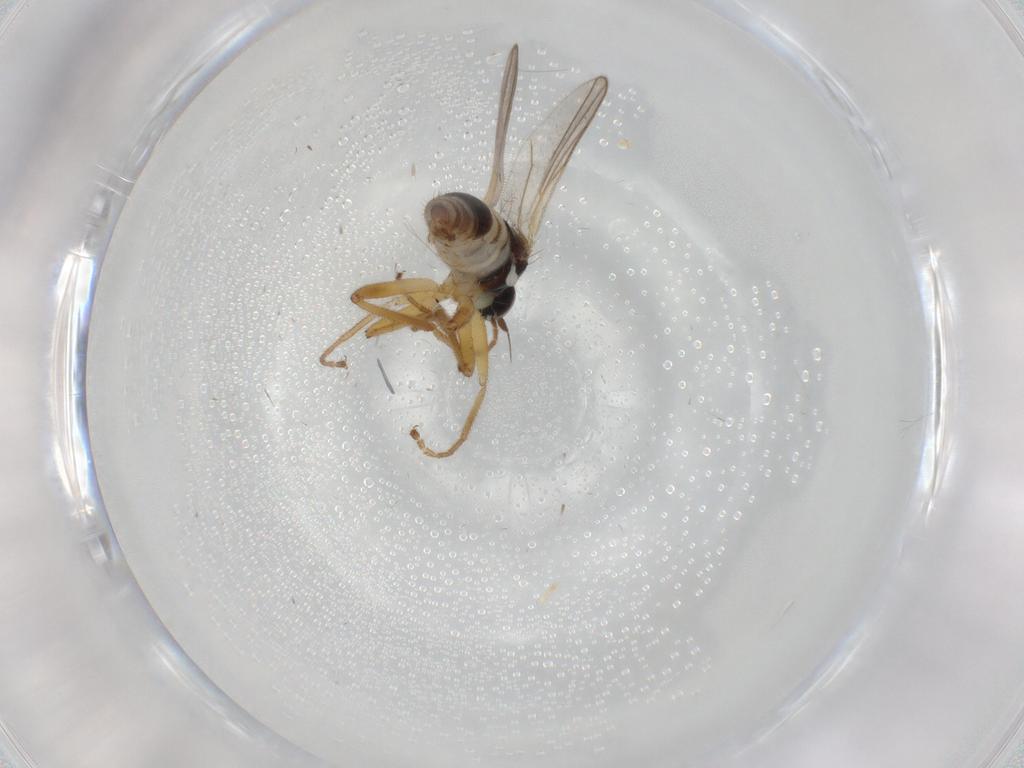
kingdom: Animalia
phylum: Arthropoda
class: Insecta
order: Diptera
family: Hybotidae
